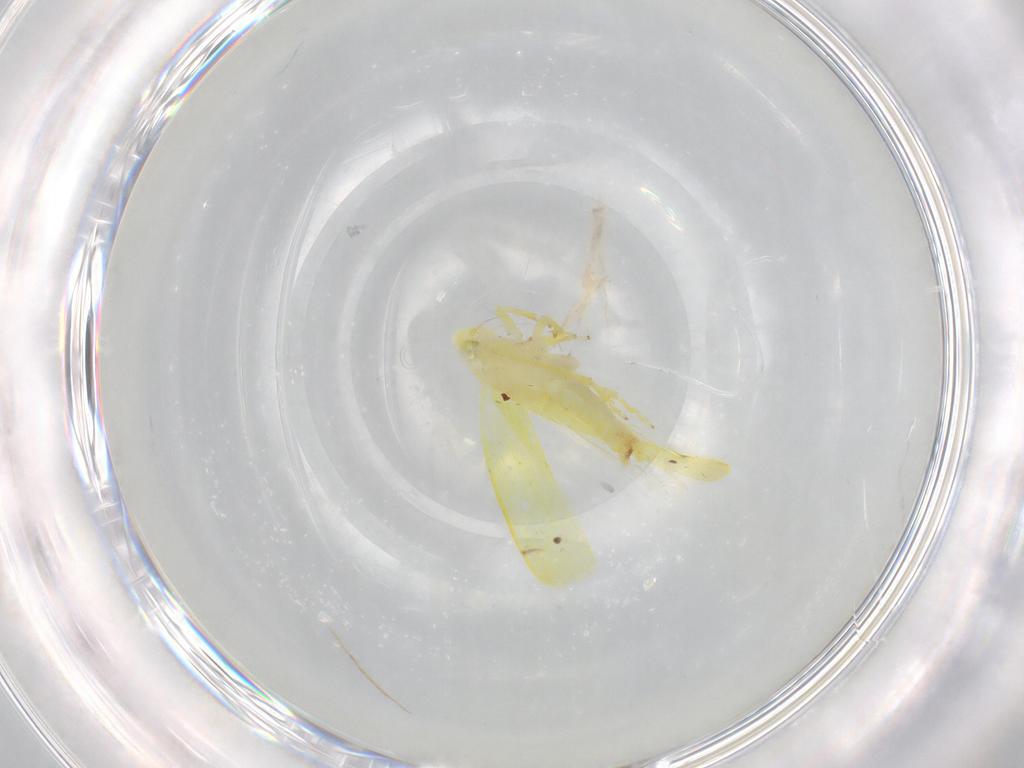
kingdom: Animalia
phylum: Arthropoda
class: Insecta
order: Hemiptera
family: Cicadellidae
